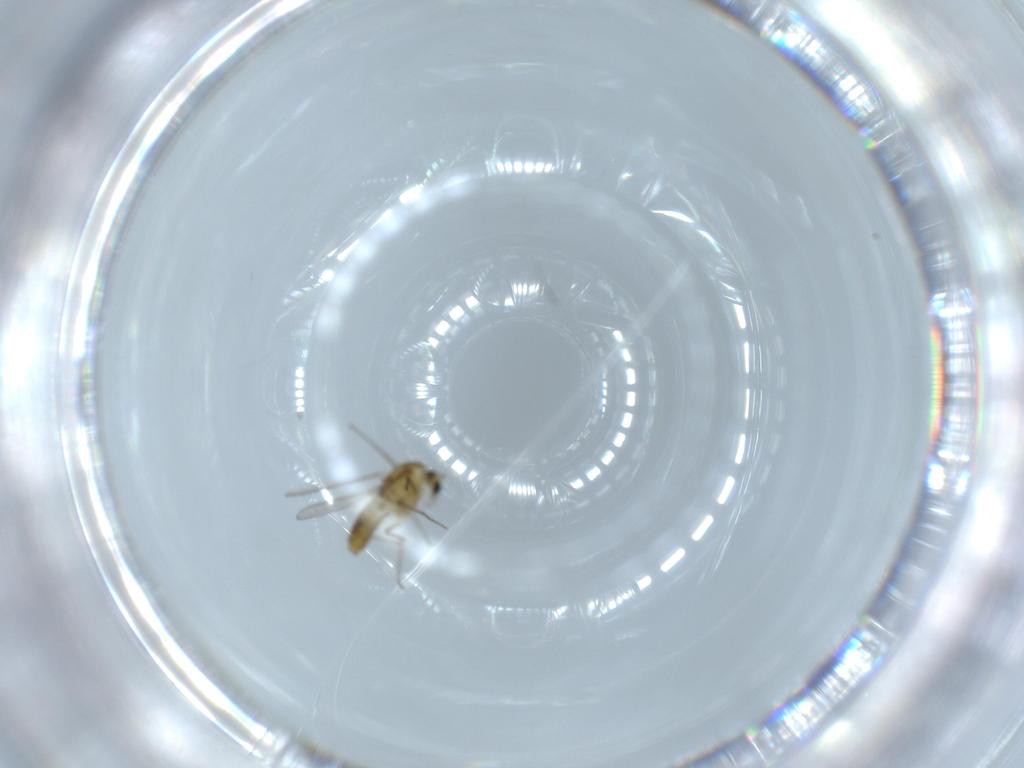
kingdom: Animalia
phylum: Arthropoda
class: Insecta
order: Diptera
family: Chironomidae
